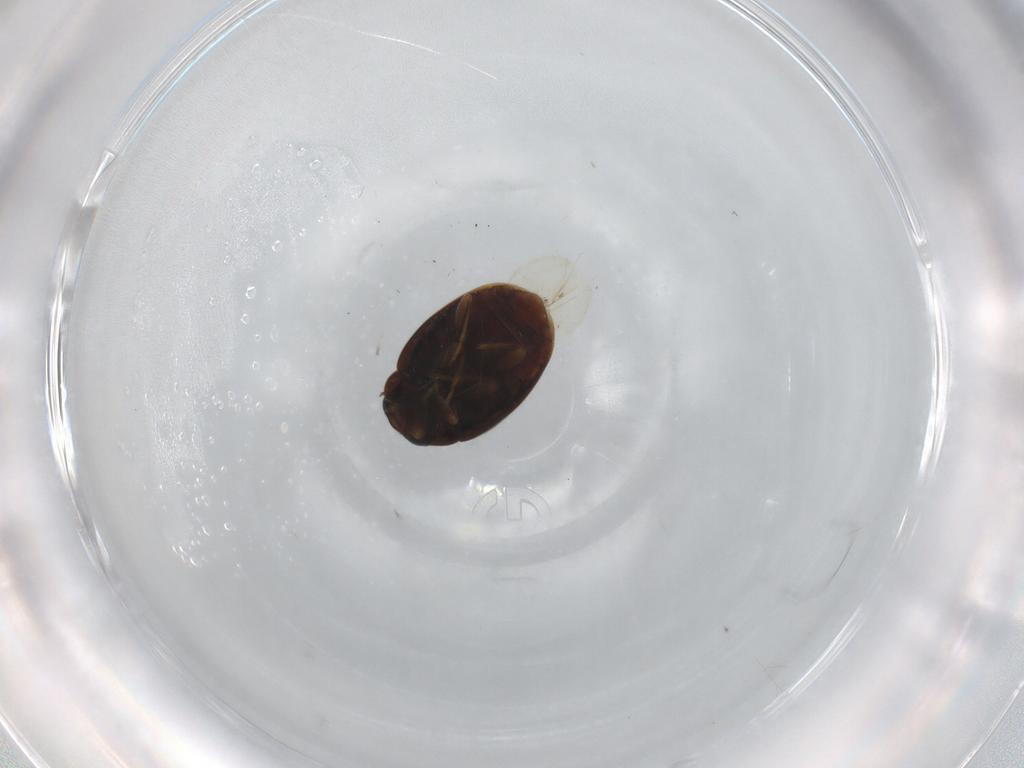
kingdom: Animalia
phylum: Arthropoda
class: Insecta
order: Coleoptera
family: Coccinellidae
